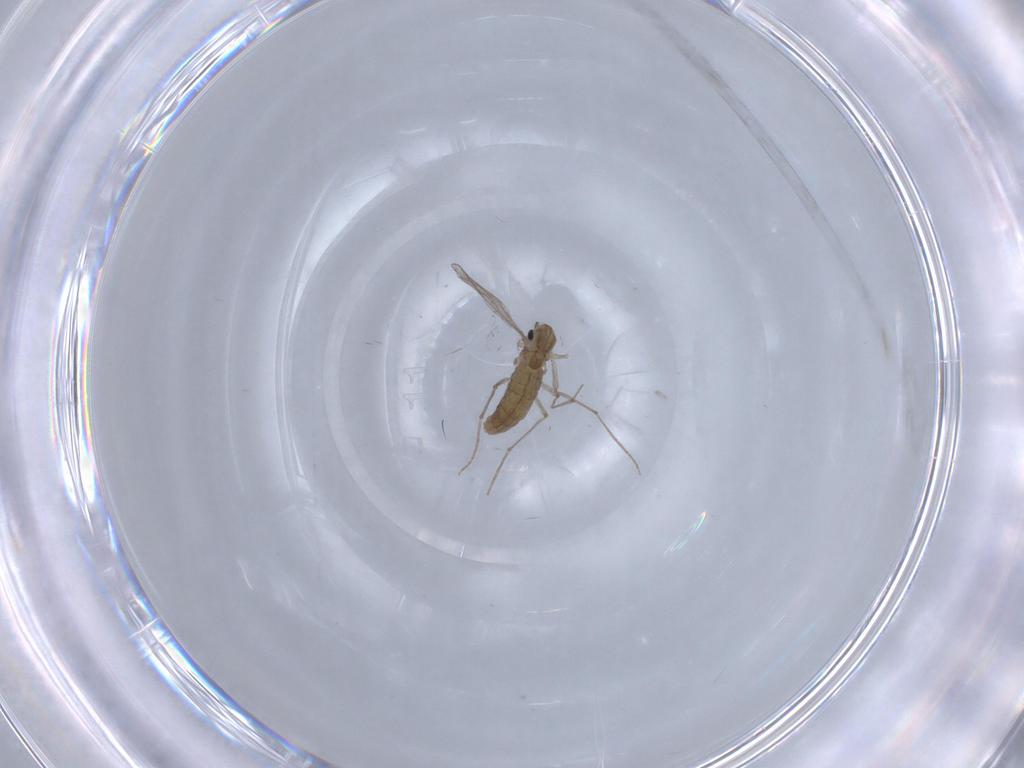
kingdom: Animalia
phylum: Arthropoda
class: Insecta
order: Diptera
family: Chironomidae
